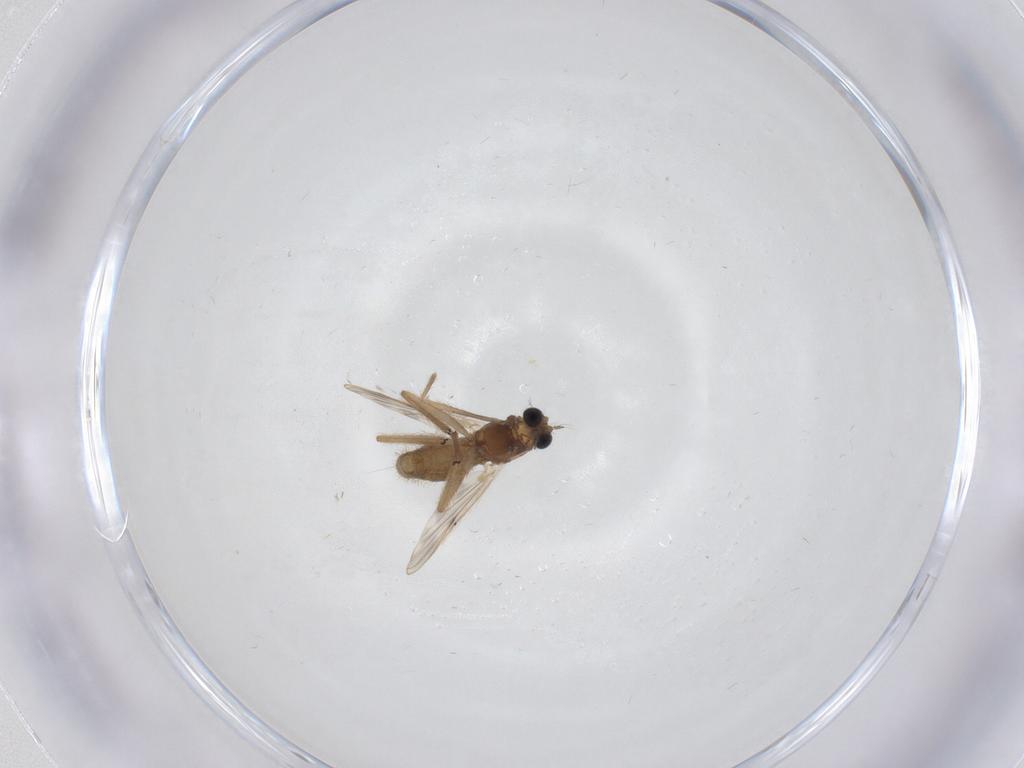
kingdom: Animalia
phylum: Arthropoda
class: Insecta
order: Diptera
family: Chironomidae
